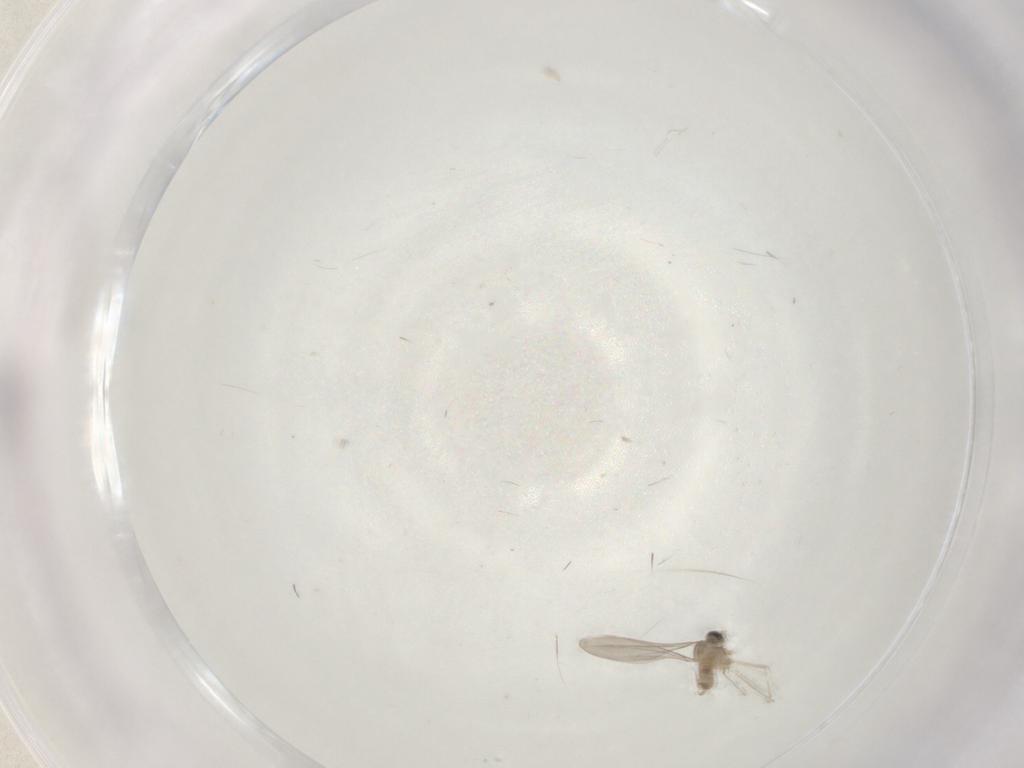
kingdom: Animalia
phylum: Arthropoda
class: Insecta
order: Diptera
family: Cecidomyiidae
